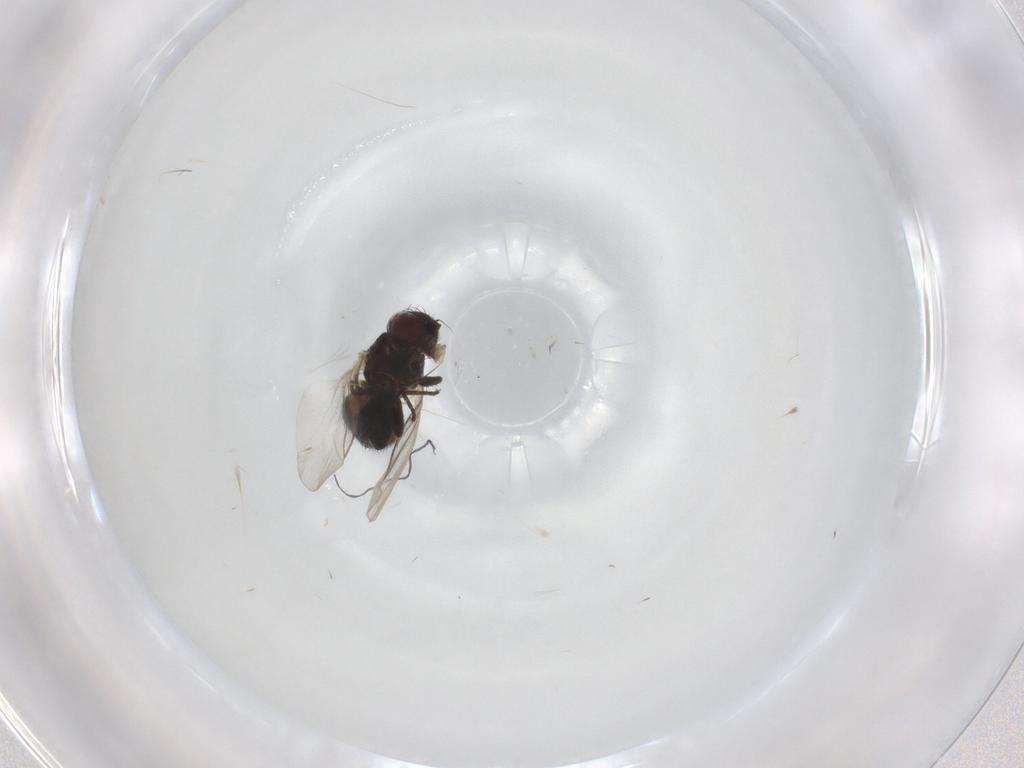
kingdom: Animalia
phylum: Arthropoda
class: Insecta
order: Diptera
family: Agromyzidae
